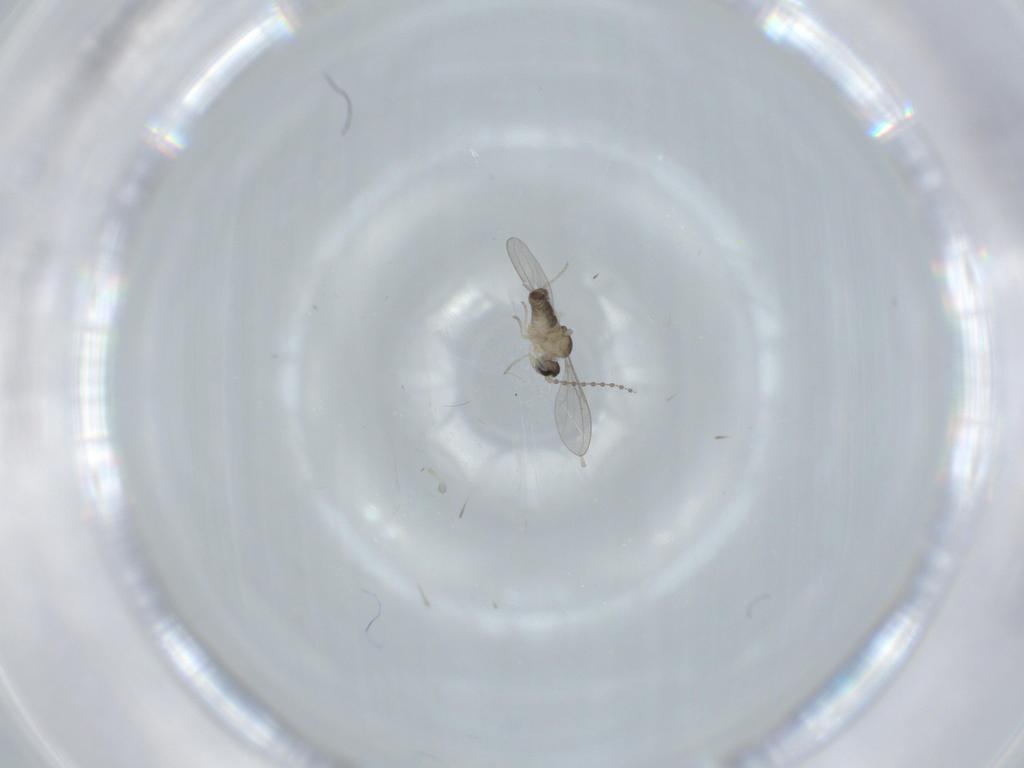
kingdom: Animalia
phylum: Arthropoda
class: Insecta
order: Diptera
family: Cecidomyiidae
